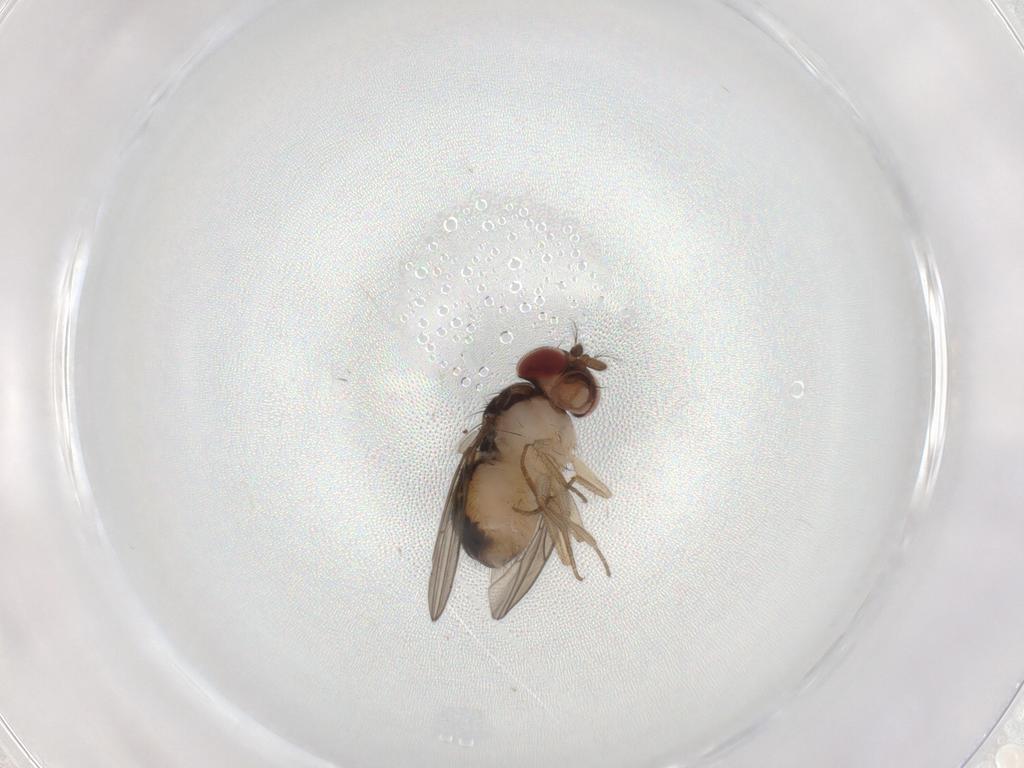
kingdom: Animalia
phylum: Arthropoda
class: Insecta
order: Diptera
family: Drosophilidae
